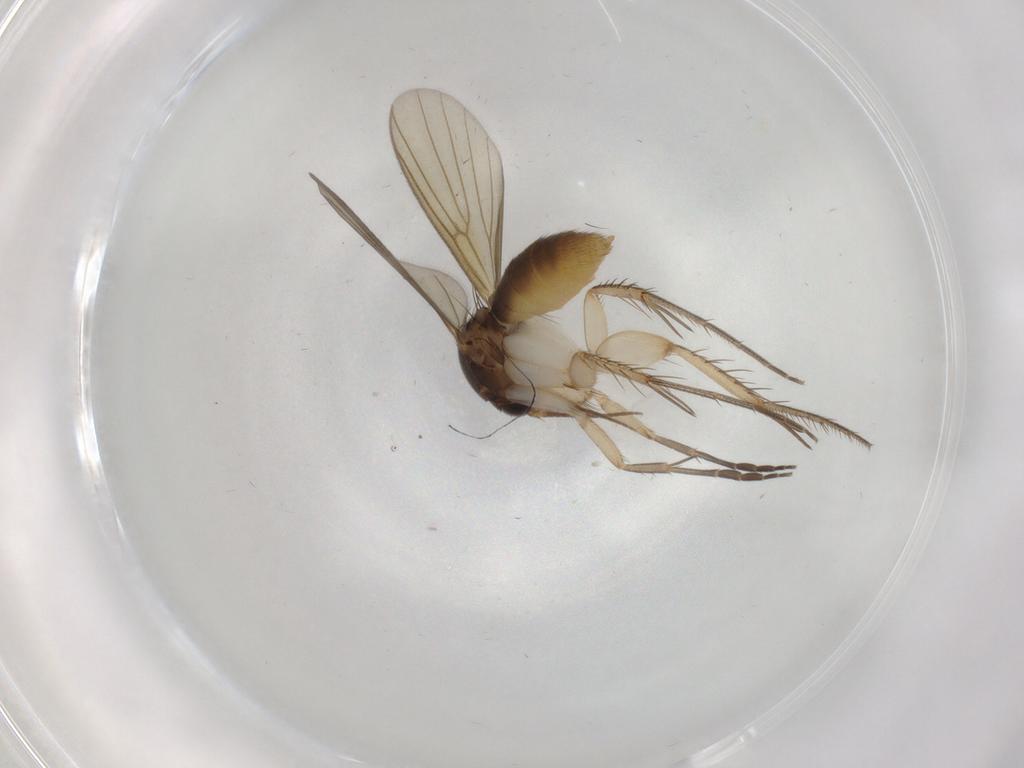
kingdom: Animalia
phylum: Arthropoda
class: Insecta
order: Diptera
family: Mycetophilidae
